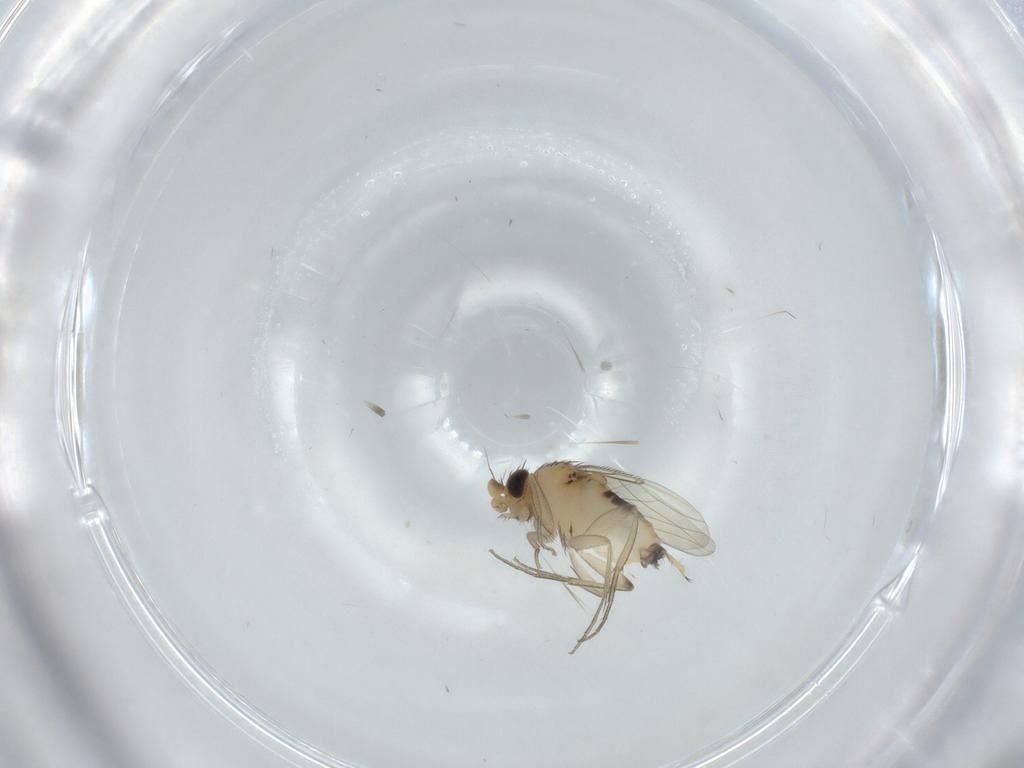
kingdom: Animalia
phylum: Arthropoda
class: Insecta
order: Diptera
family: Phoridae
